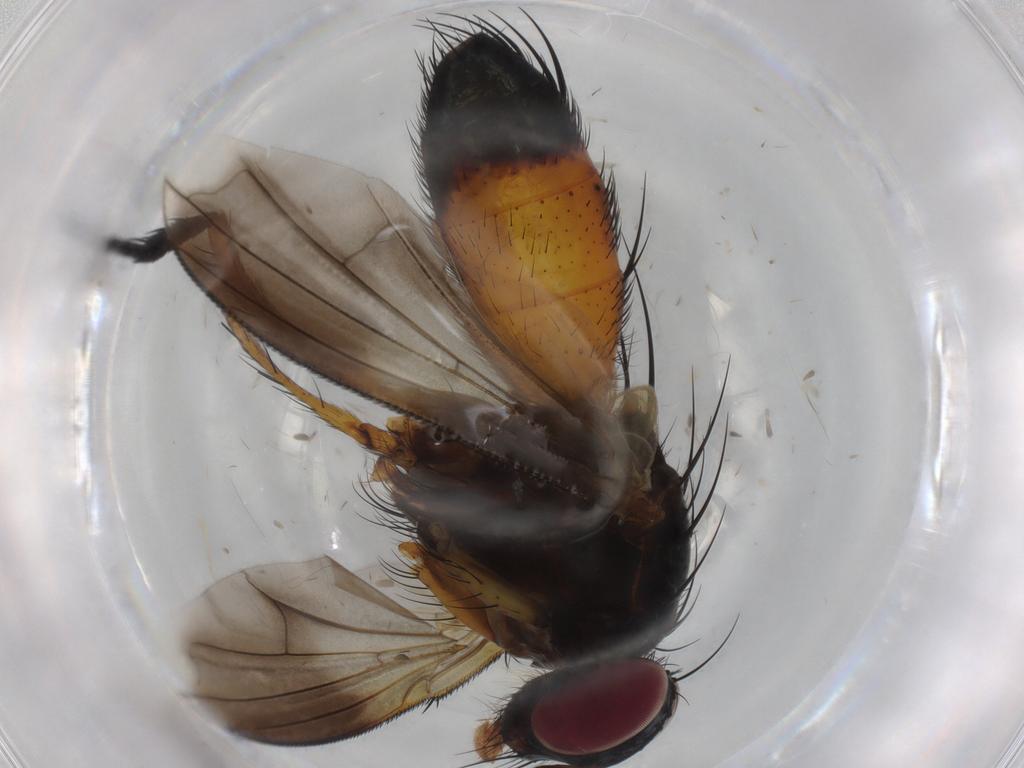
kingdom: Animalia
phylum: Arthropoda
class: Insecta
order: Diptera
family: Tachinidae
